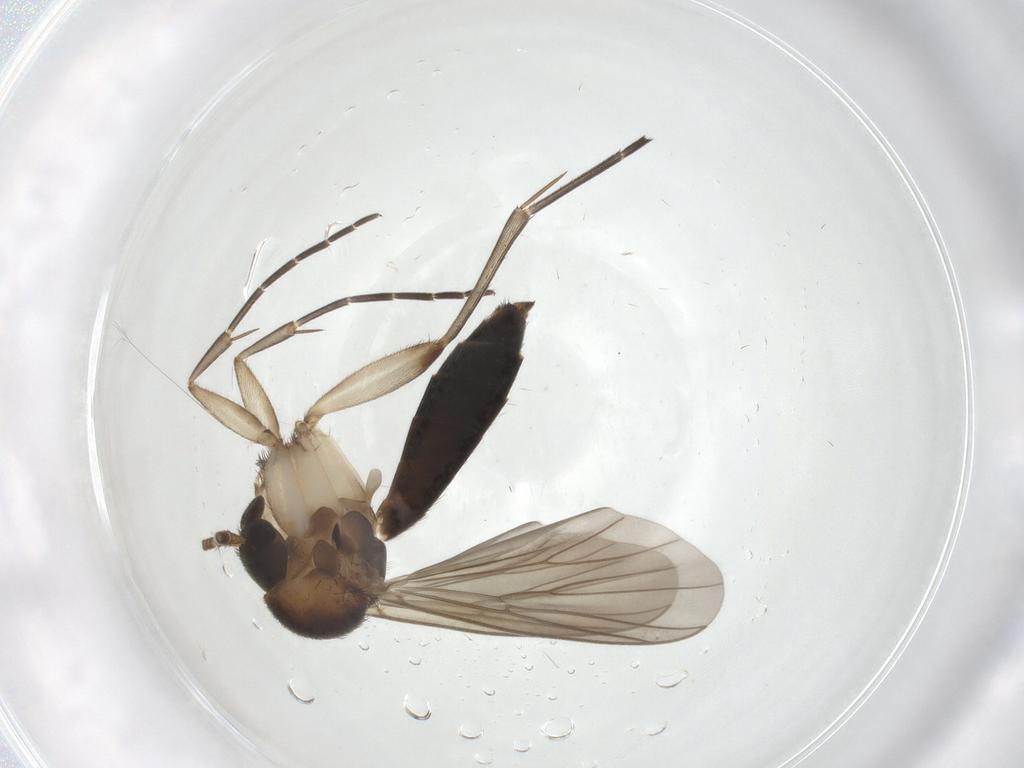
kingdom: Animalia
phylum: Arthropoda
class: Insecta
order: Diptera
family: Mycetophilidae
